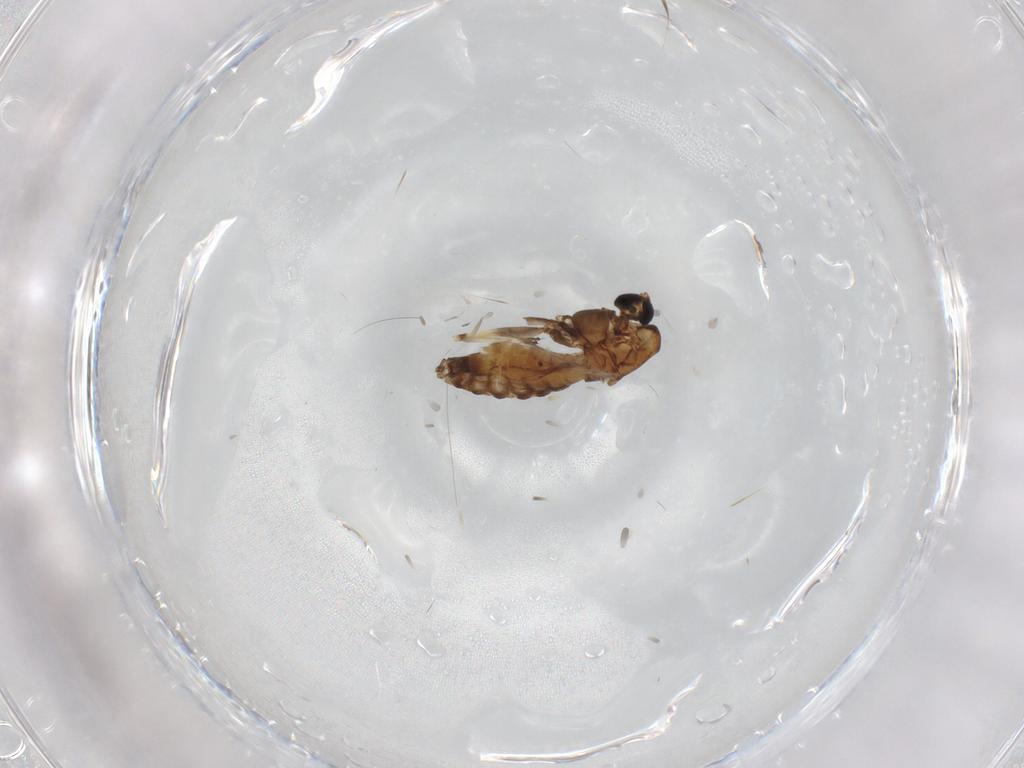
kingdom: Animalia
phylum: Arthropoda
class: Insecta
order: Diptera
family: Chironomidae
